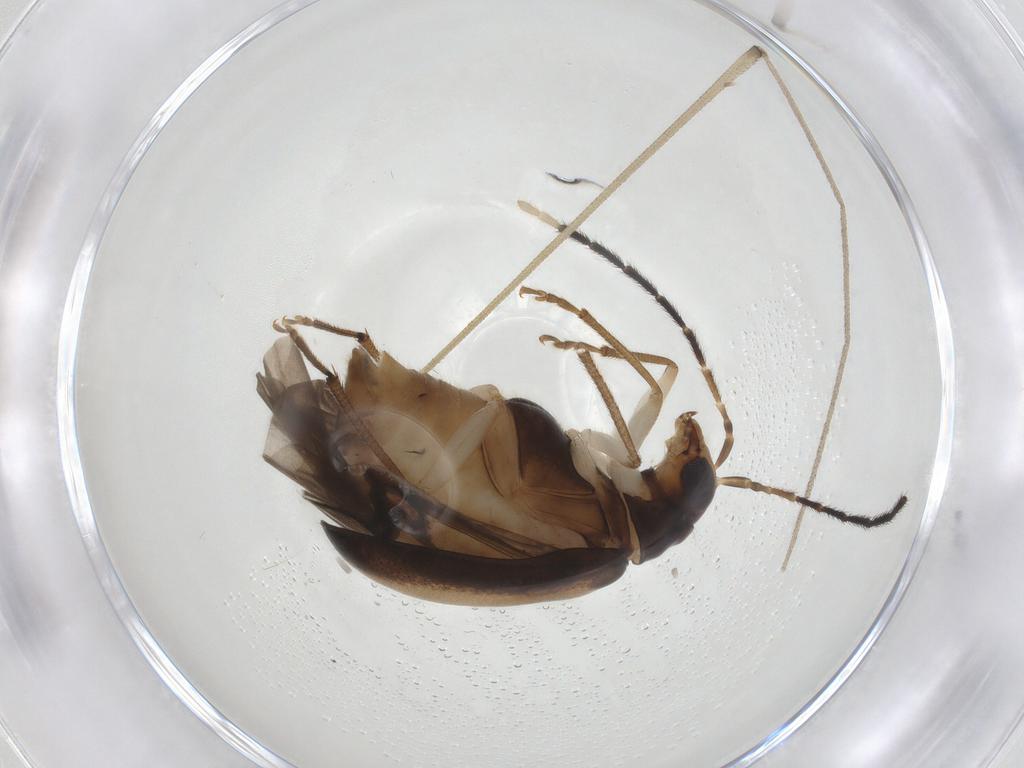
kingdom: Animalia
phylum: Arthropoda
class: Insecta
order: Coleoptera
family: Chrysomelidae
